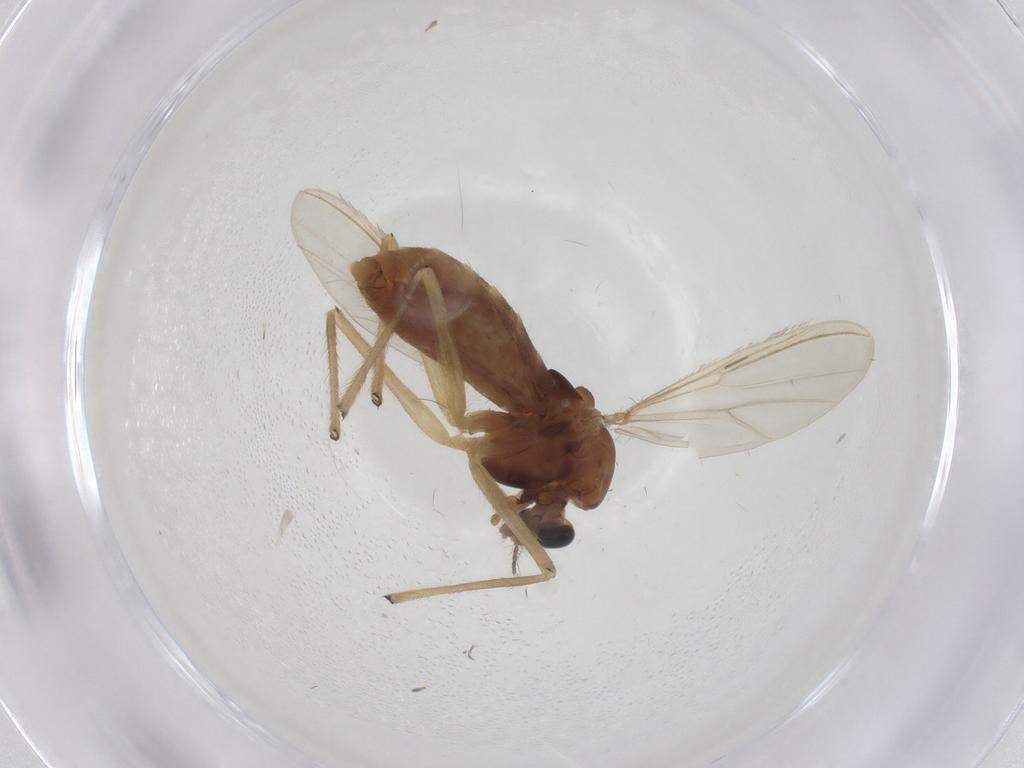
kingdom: Animalia
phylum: Arthropoda
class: Insecta
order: Diptera
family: Chironomidae
